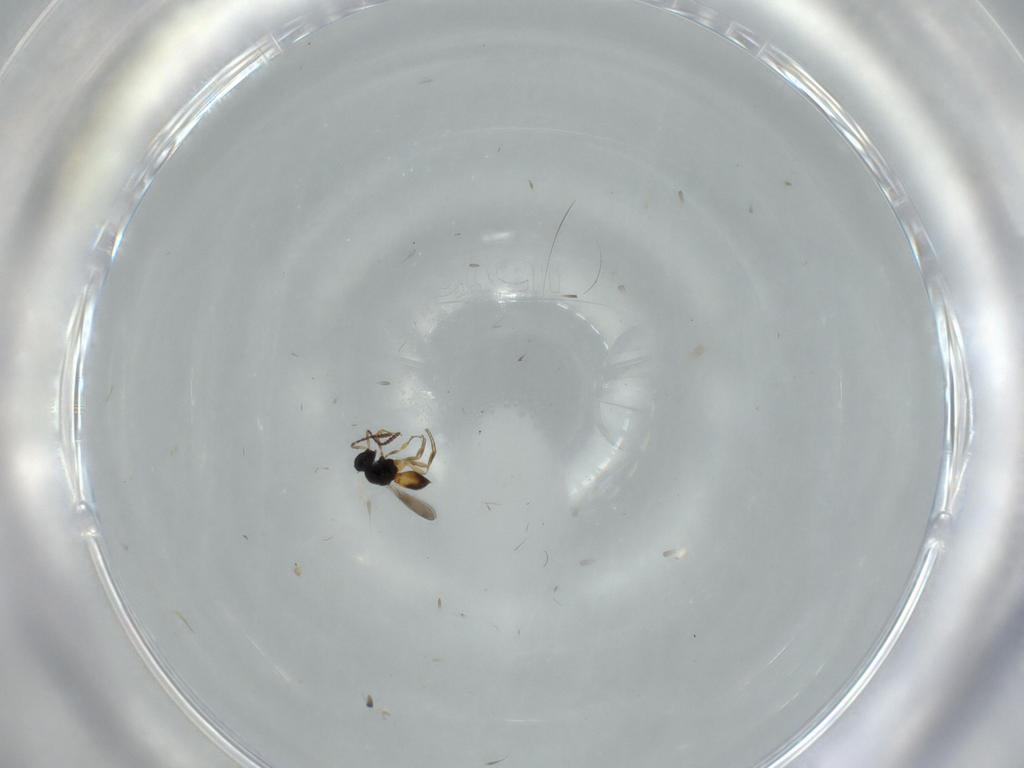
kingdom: Animalia
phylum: Arthropoda
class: Insecta
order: Hymenoptera
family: Scelionidae
